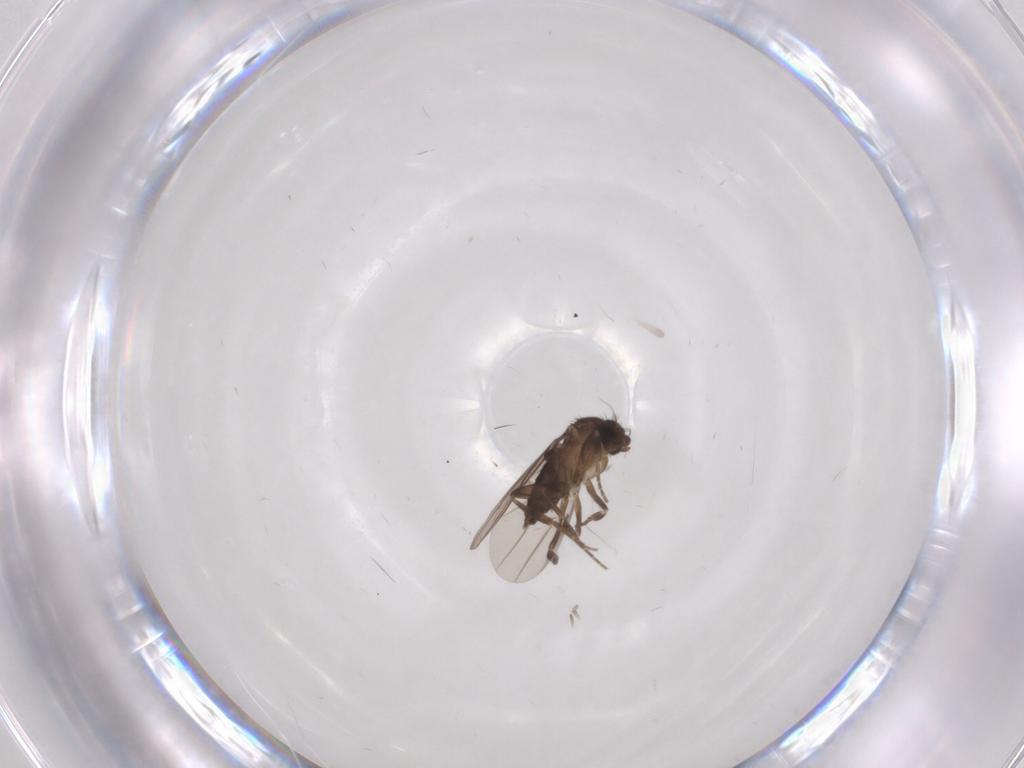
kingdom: Animalia
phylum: Arthropoda
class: Insecta
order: Diptera
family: Phoridae
